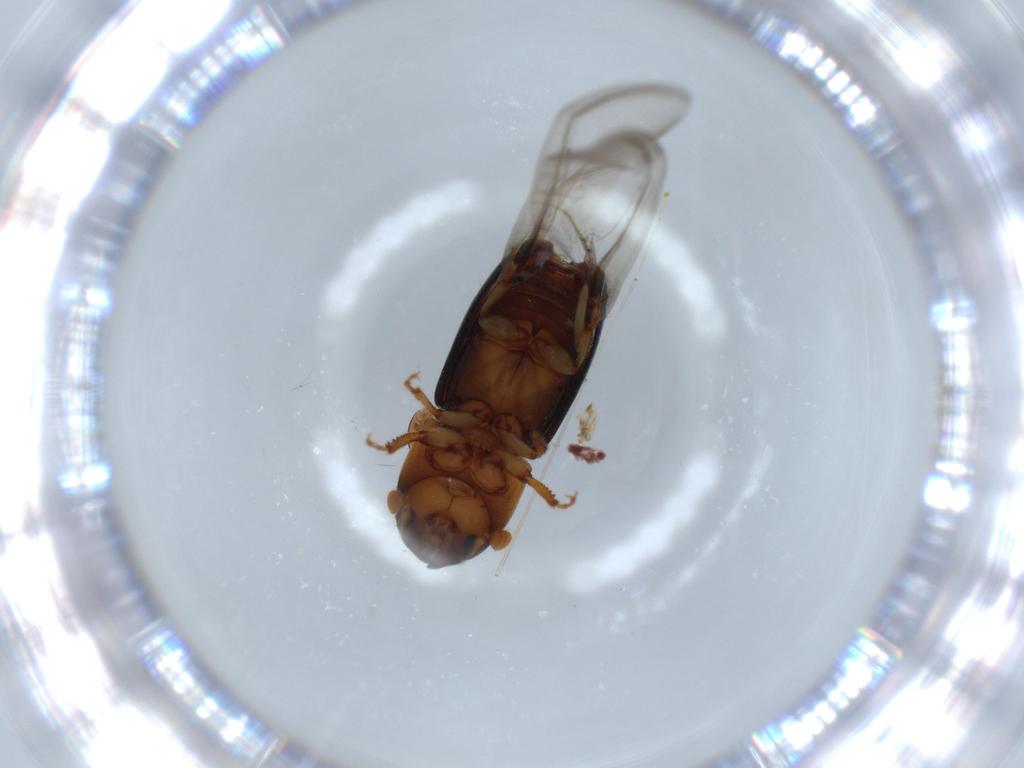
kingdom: Animalia
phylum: Arthropoda
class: Insecta
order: Coleoptera
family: Curculionidae
